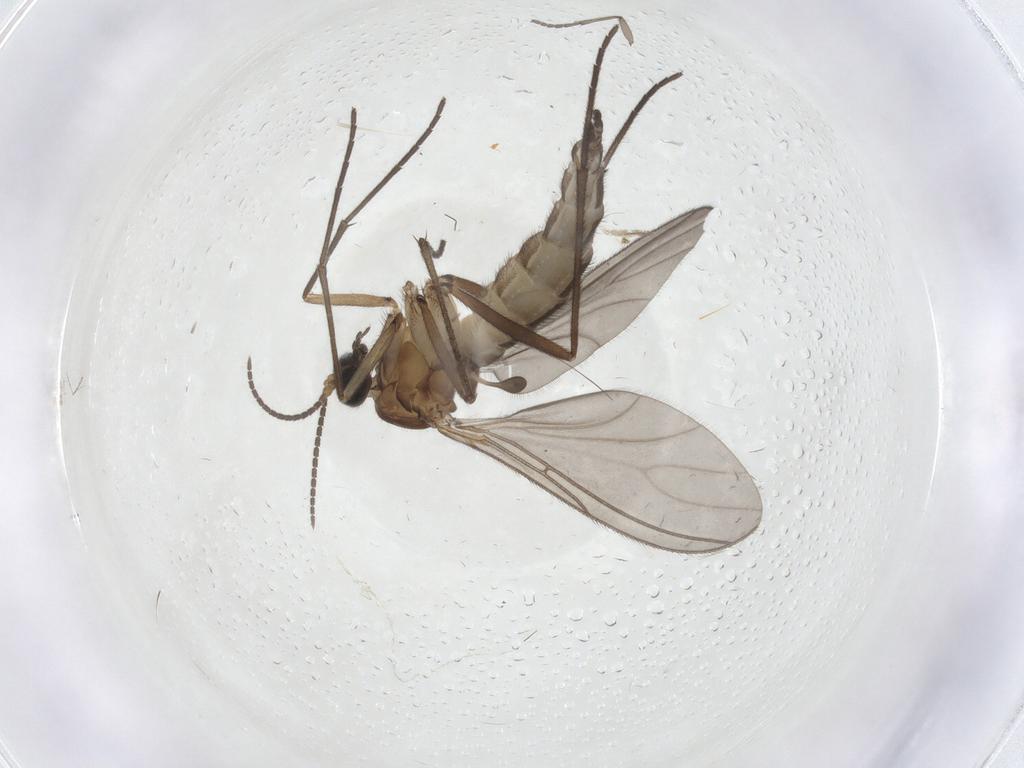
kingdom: Animalia
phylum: Arthropoda
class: Insecta
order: Diptera
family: Sciaridae
